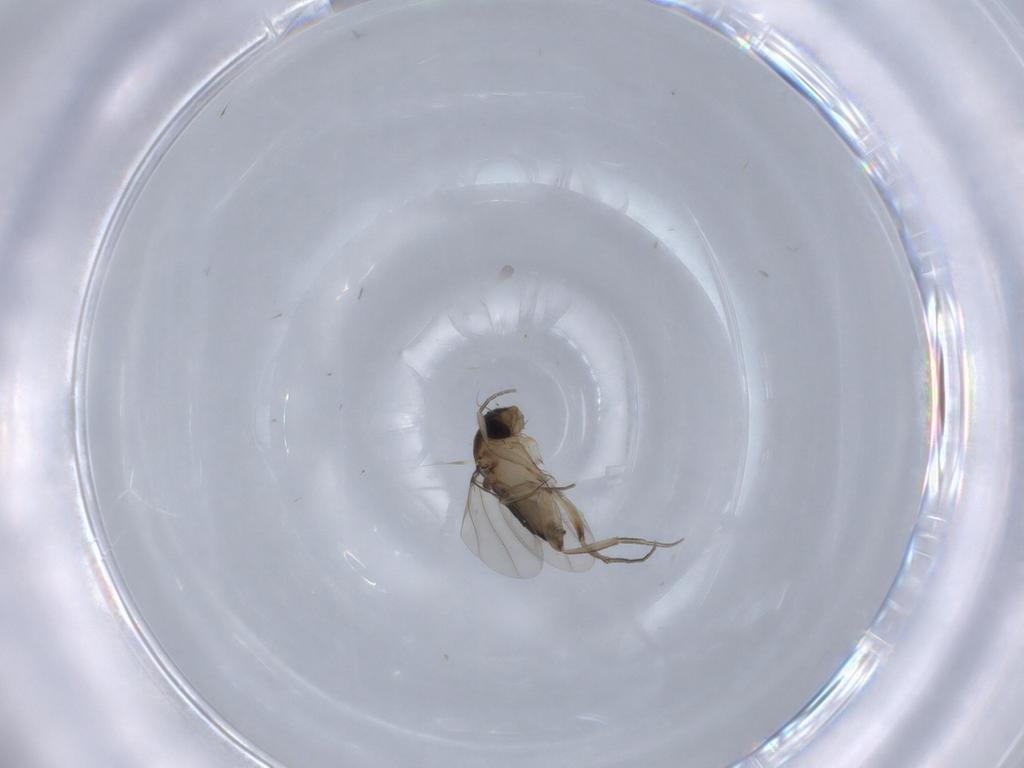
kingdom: Animalia
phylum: Arthropoda
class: Insecta
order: Diptera
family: Phoridae
